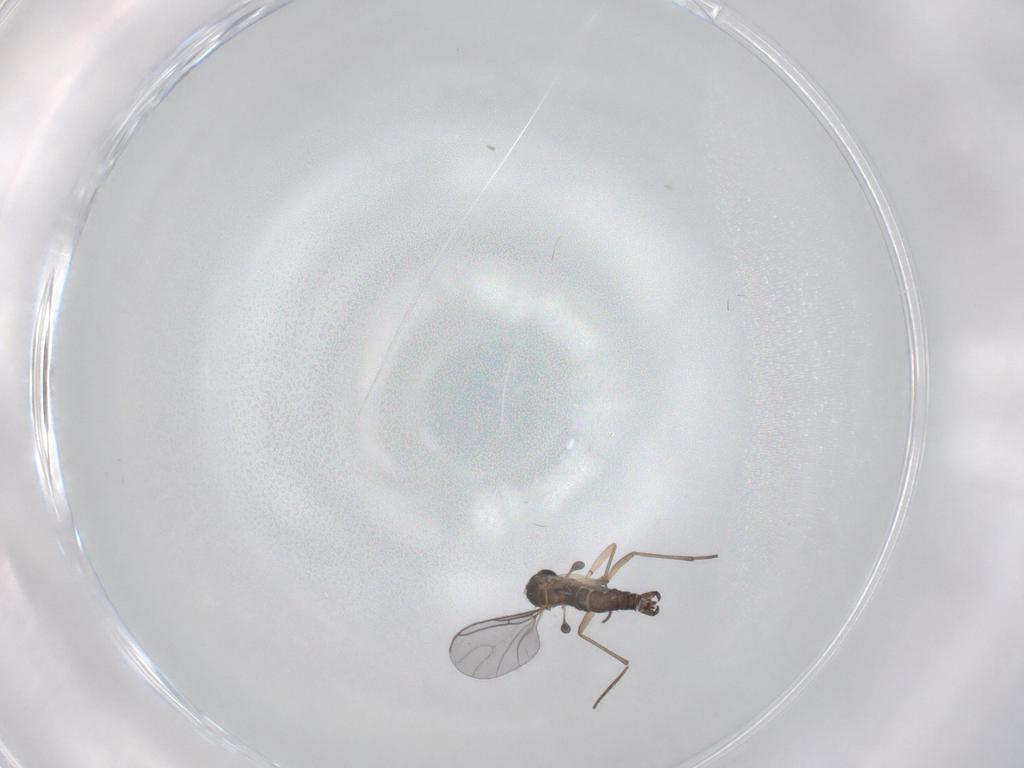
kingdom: Animalia
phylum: Arthropoda
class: Insecta
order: Diptera
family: Sciaridae
